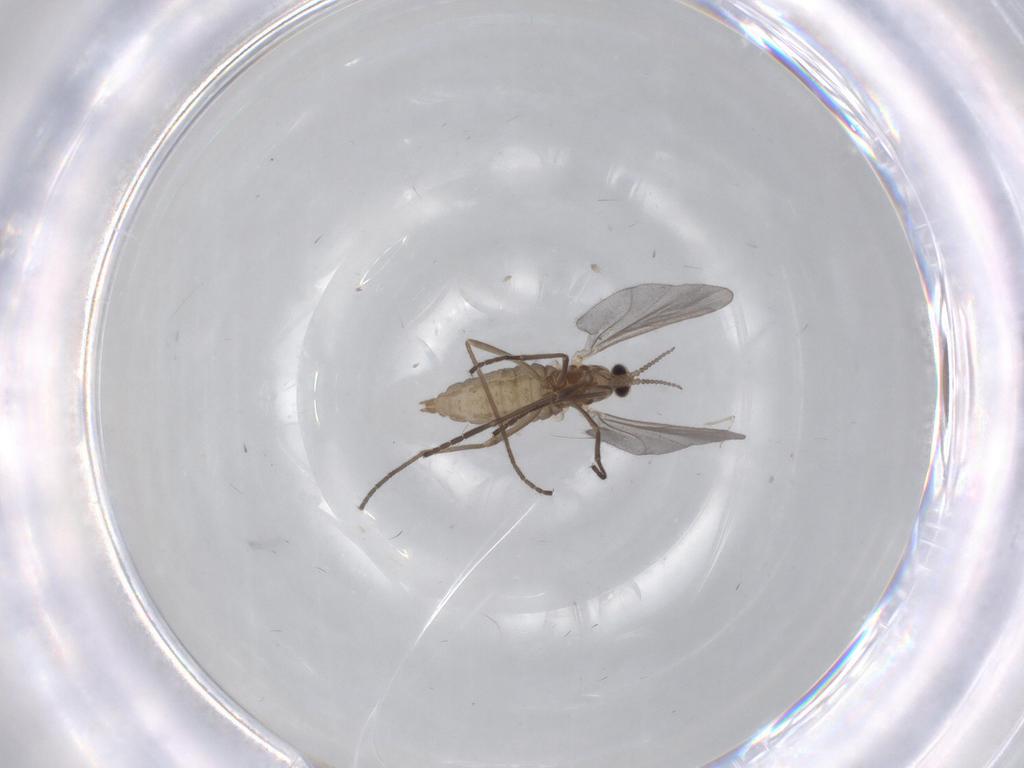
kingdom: Animalia
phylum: Arthropoda
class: Insecta
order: Diptera
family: Cecidomyiidae
